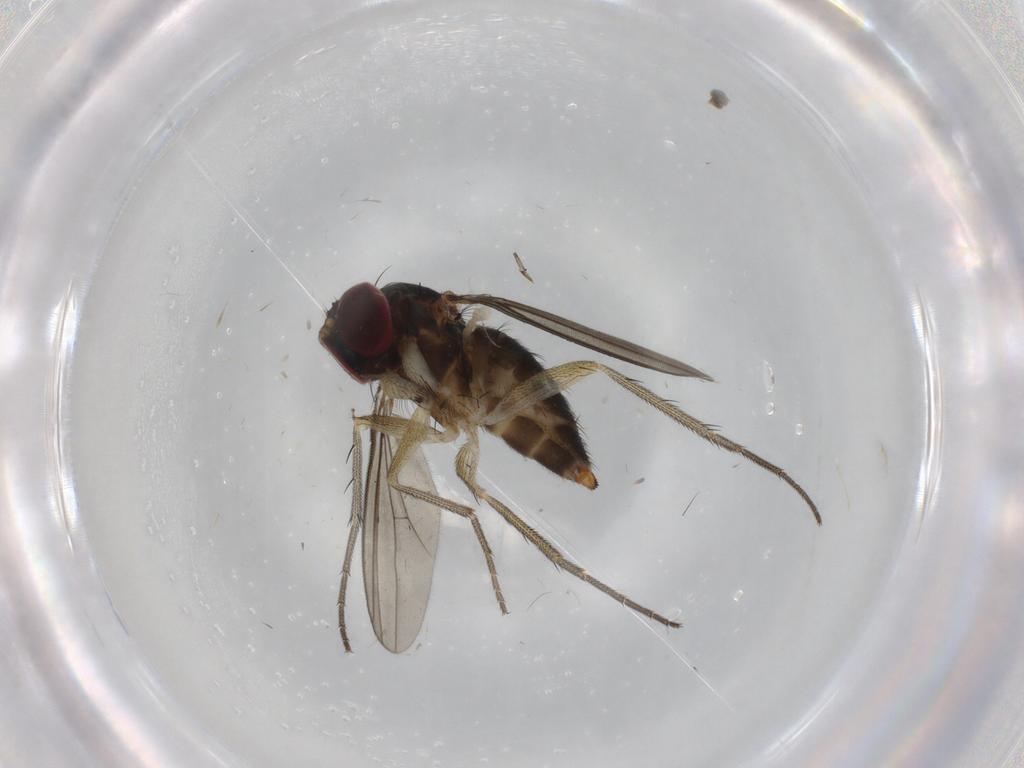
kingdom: Animalia
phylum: Arthropoda
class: Insecta
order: Diptera
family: Dolichopodidae
